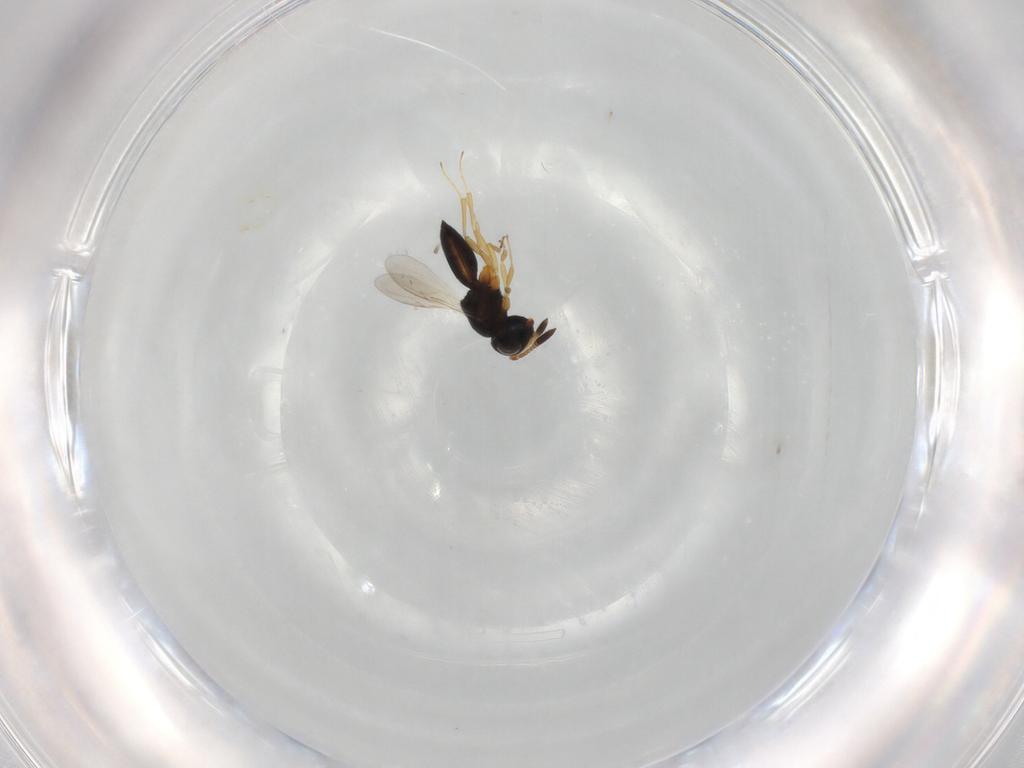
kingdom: Animalia
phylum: Arthropoda
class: Insecta
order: Hymenoptera
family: Scelionidae
